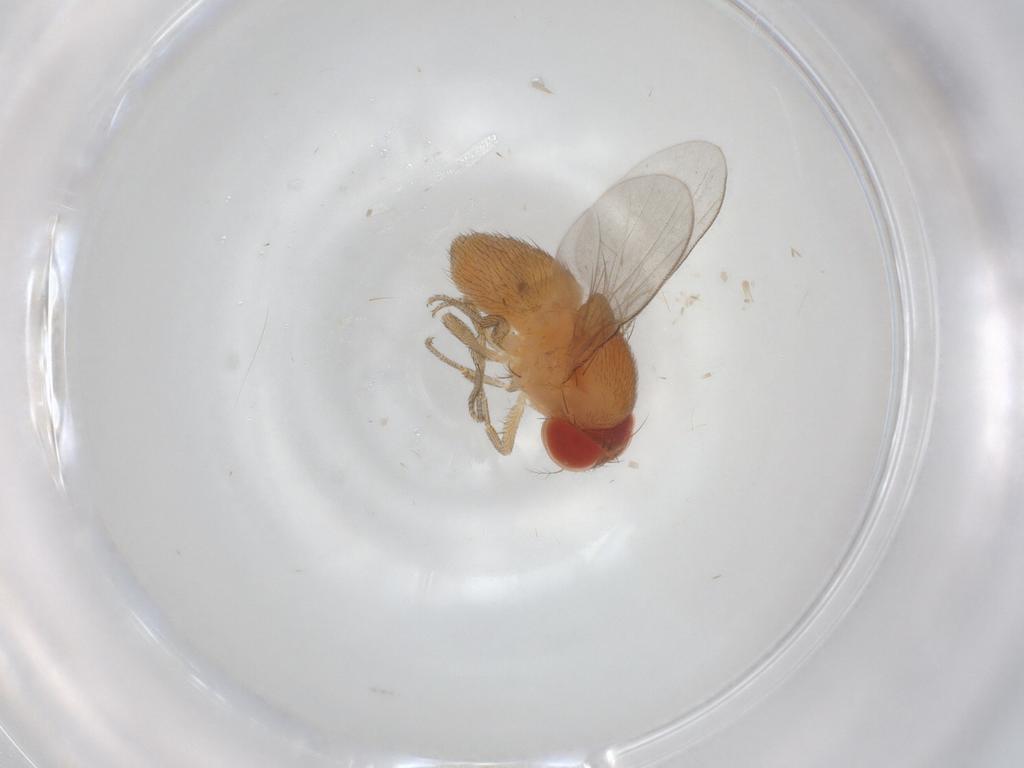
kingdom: Animalia
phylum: Arthropoda
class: Insecta
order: Diptera
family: Drosophilidae
